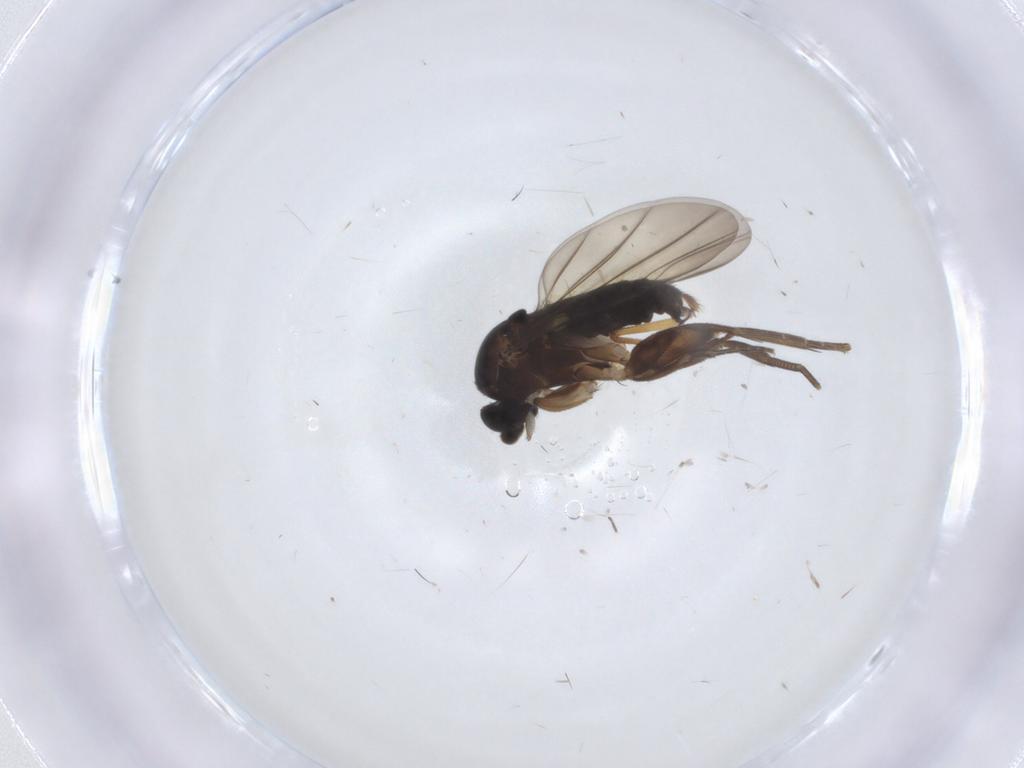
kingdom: Animalia
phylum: Arthropoda
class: Insecta
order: Diptera
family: Phoridae
